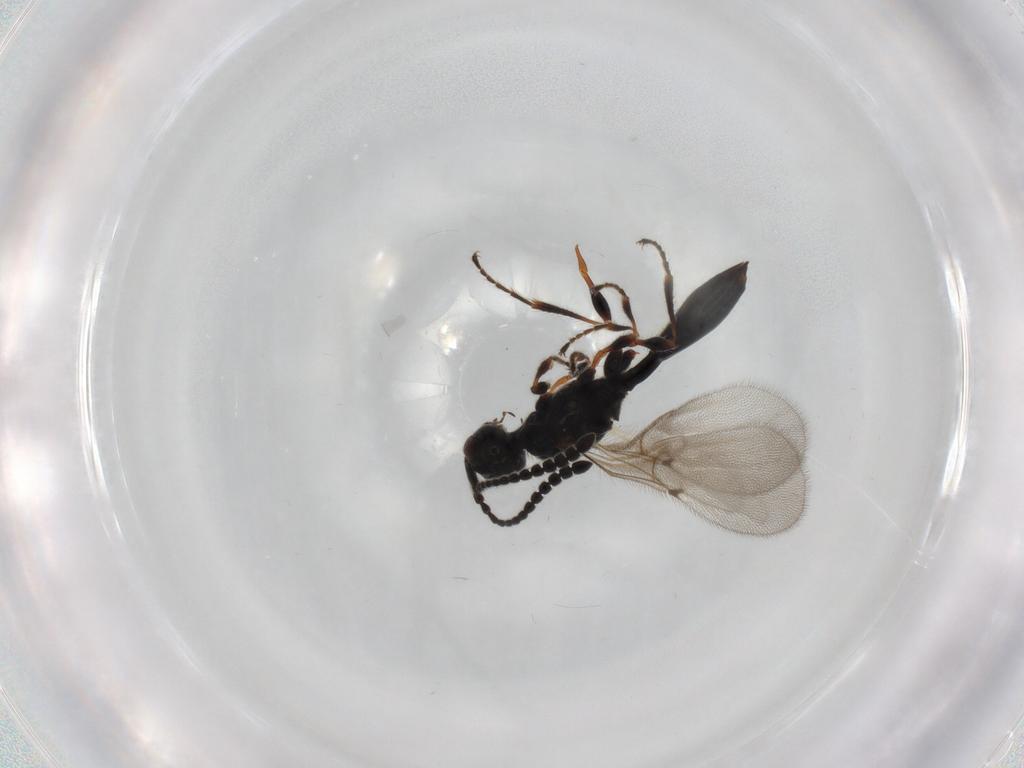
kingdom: Animalia
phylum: Arthropoda
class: Insecta
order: Hymenoptera
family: Diapriidae
